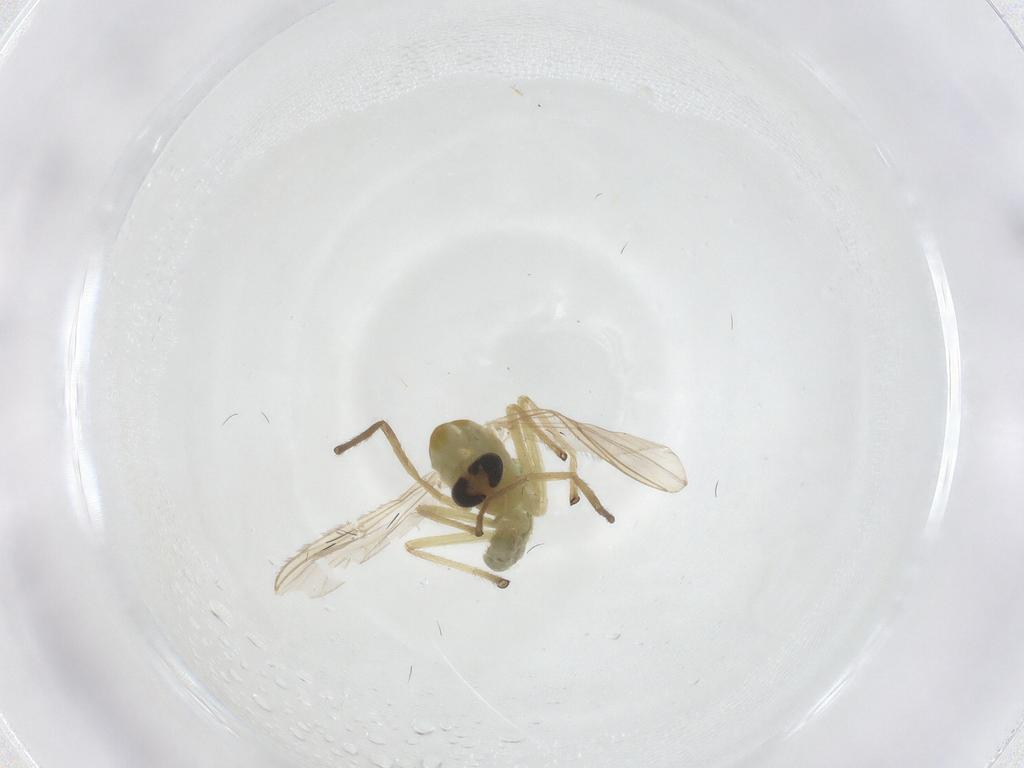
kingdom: Animalia
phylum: Arthropoda
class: Insecta
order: Diptera
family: Chironomidae
